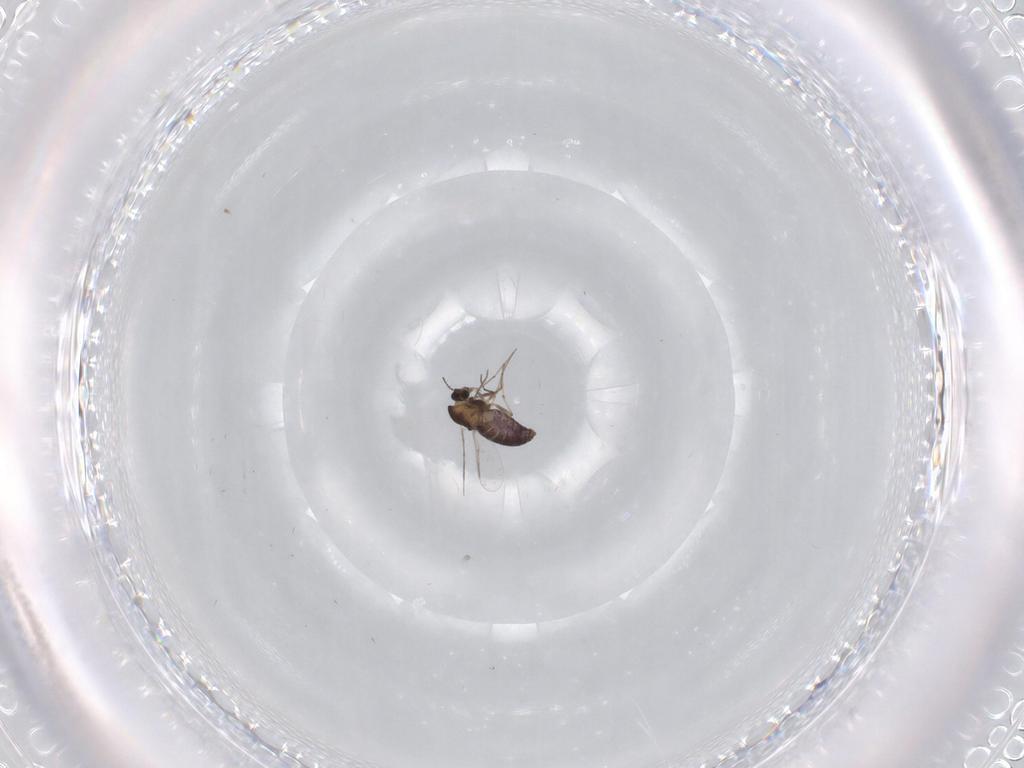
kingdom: Animalia
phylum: Arthropoda
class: Insecta
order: Diptera
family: Chironomidae
